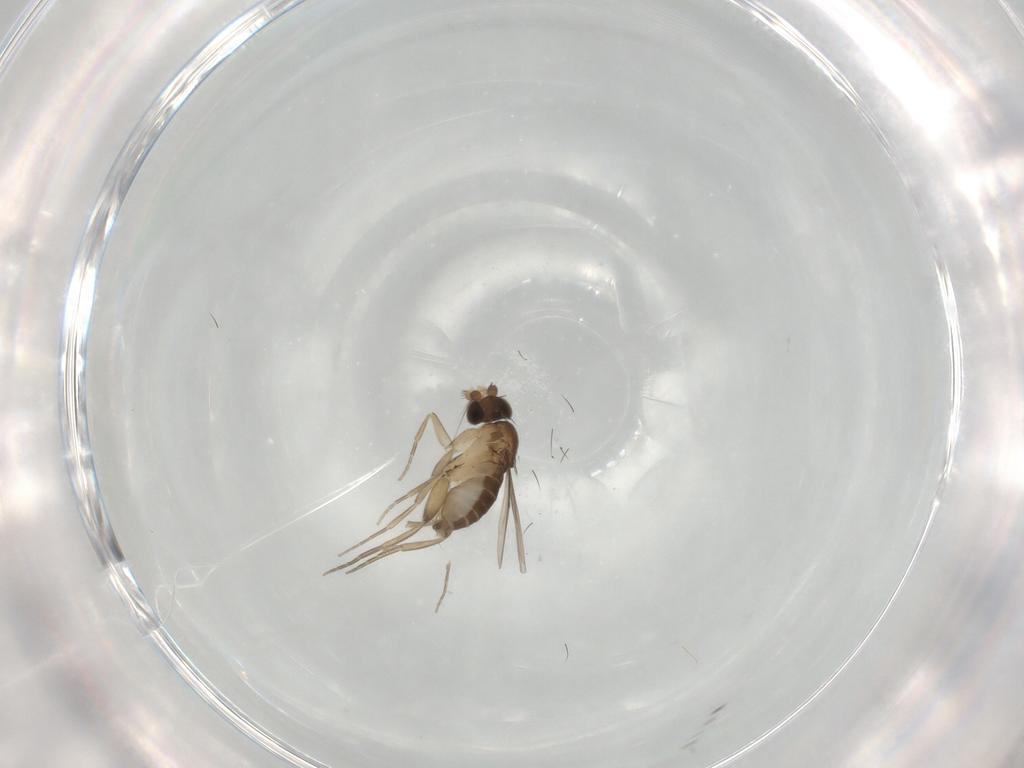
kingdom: Animalia
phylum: Arthropoda
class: Insecta
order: Diptera
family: Phoridae
